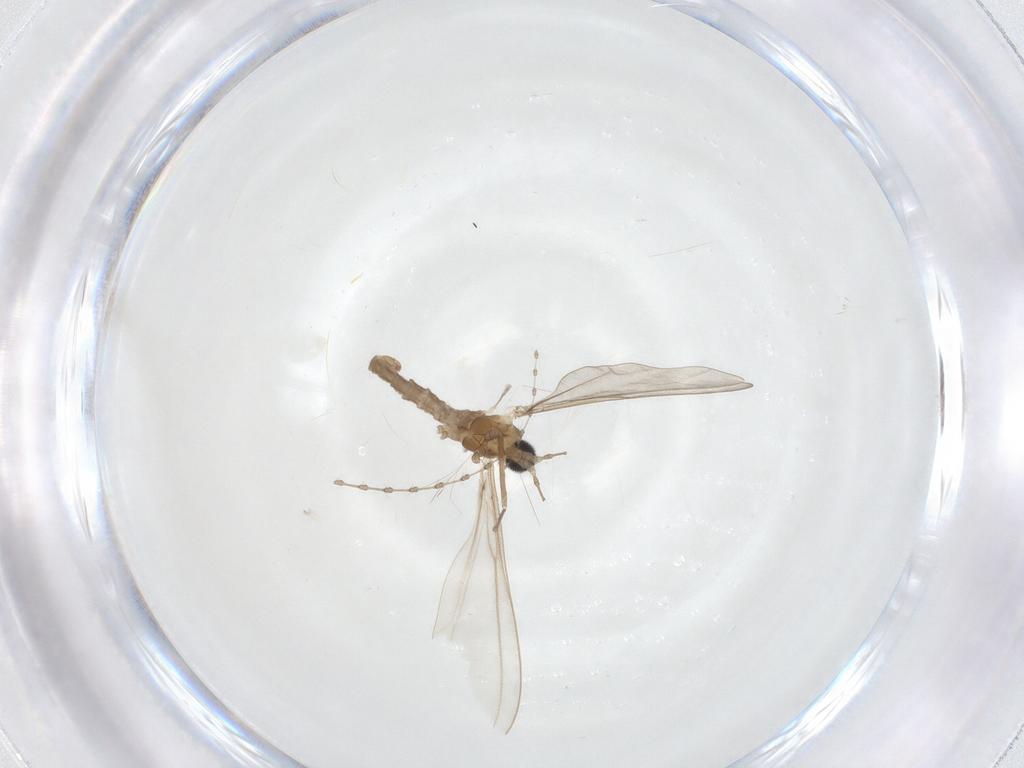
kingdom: Animalia
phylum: Arthropoda
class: Insecta
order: Diptera
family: Cecidomyiidae
